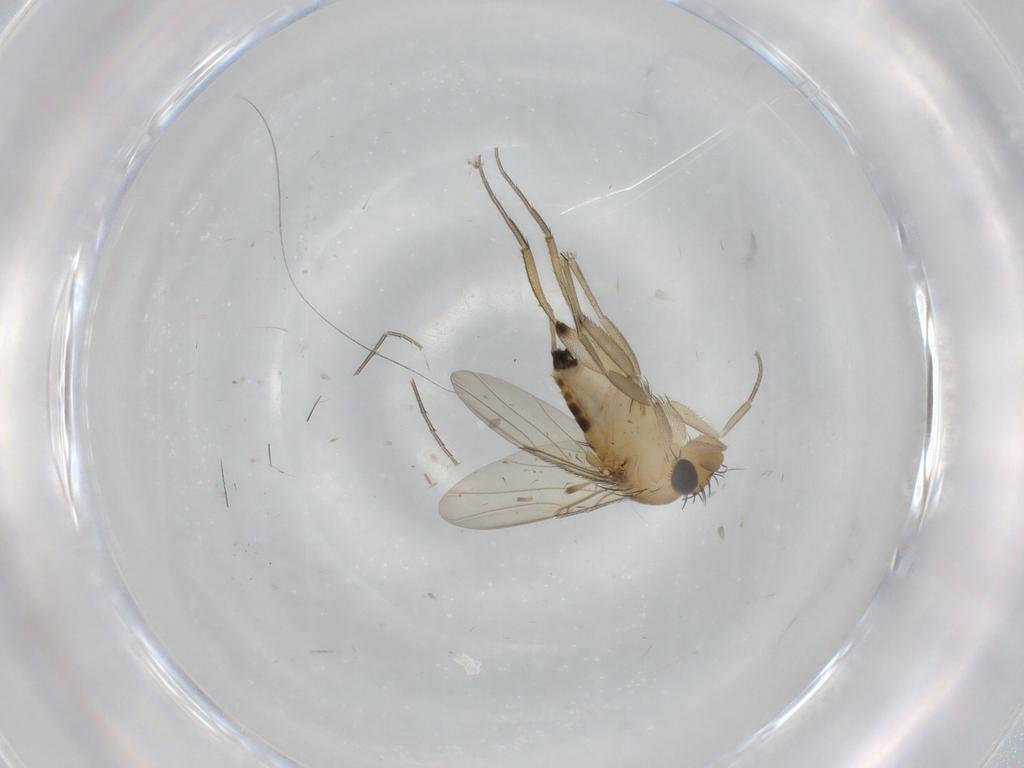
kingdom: Animalia
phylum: Arthropoda
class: Insecta
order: Diptera
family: Phoridae
